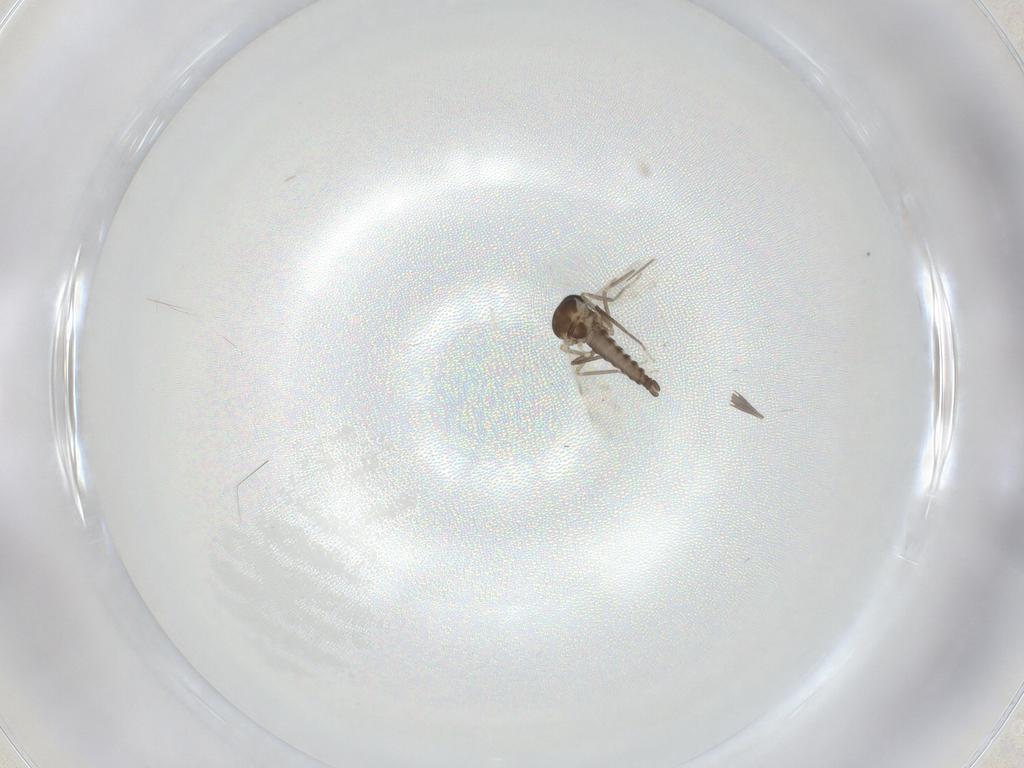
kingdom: Animalia
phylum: Arthropoda
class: Insecta
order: Diptera
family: Ceratopogonidae
